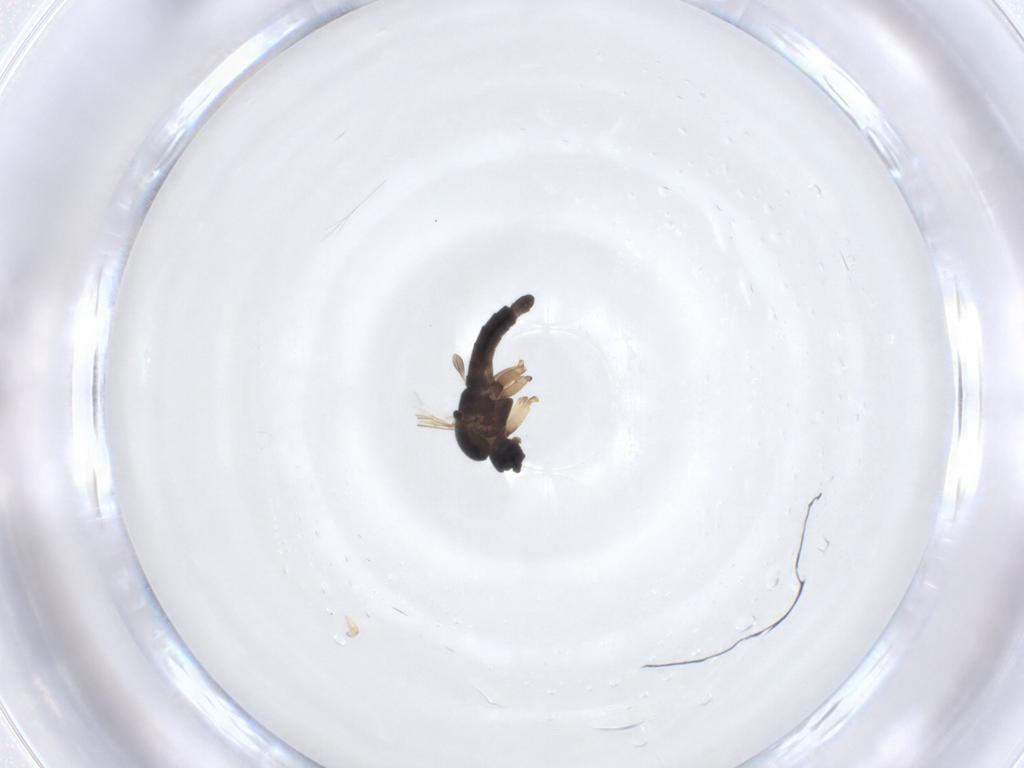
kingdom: Animalia
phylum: Arthropoda
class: Insecta
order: Diptera
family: Sciaridae
